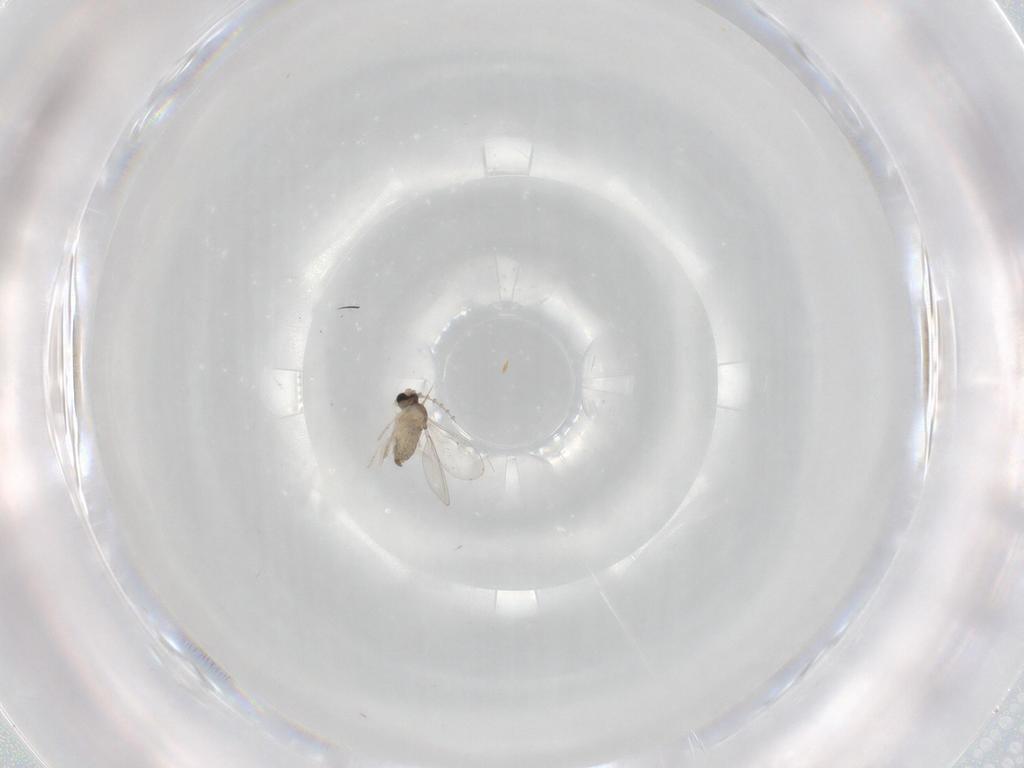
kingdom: Animalia
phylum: Arthropoda
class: Insecta
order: Diptera
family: Cecidomyiidae
